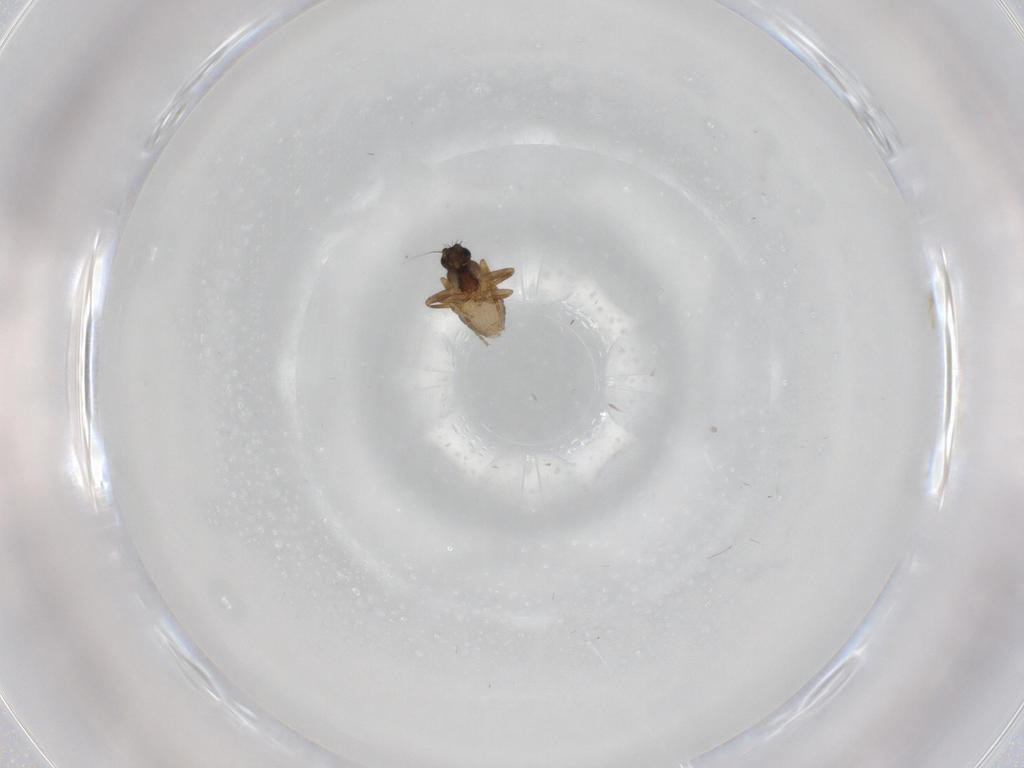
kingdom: Animalia
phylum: Arthropoda
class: Insecta
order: Diptera
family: Phoridae
